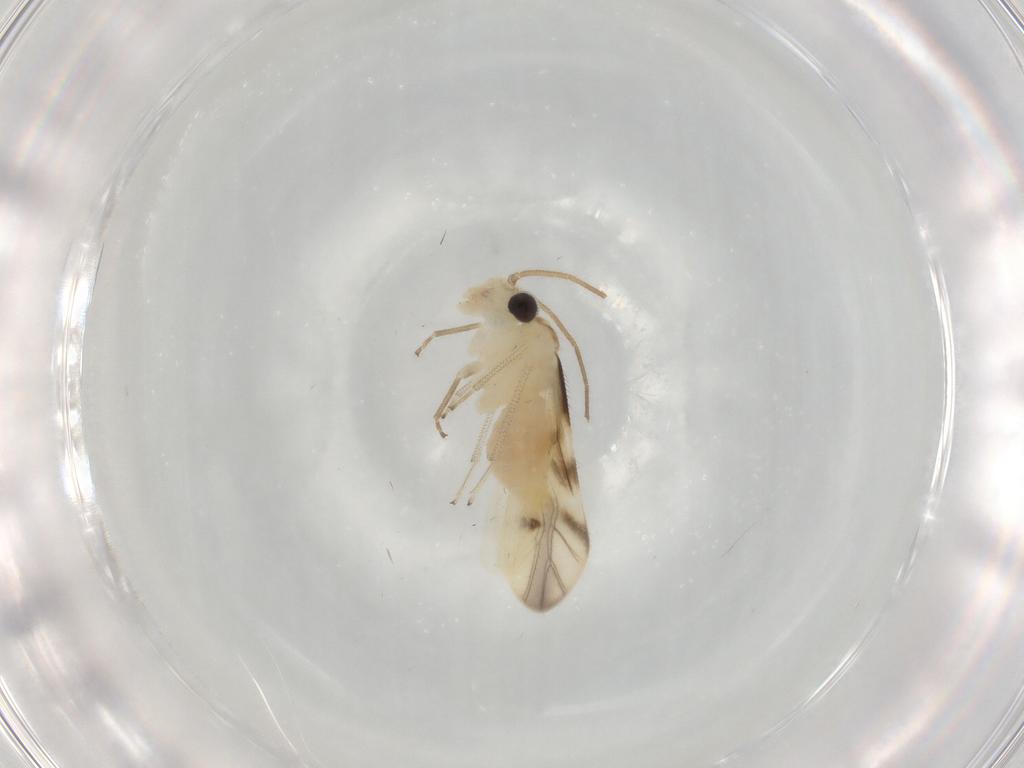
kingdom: Animalia
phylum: Arthropoda
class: Insecta
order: Psocodea
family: Caeciliusidae
